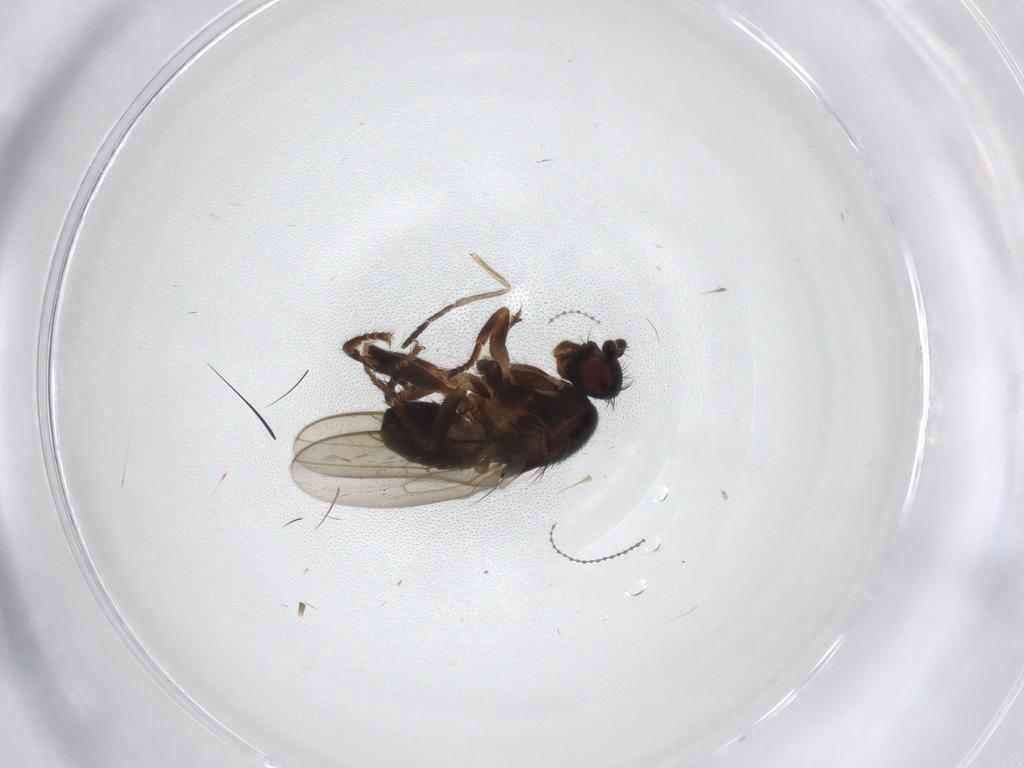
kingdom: Animalia
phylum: Arthropoda
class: Insecta
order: Diptera
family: Sphaeroceridae
